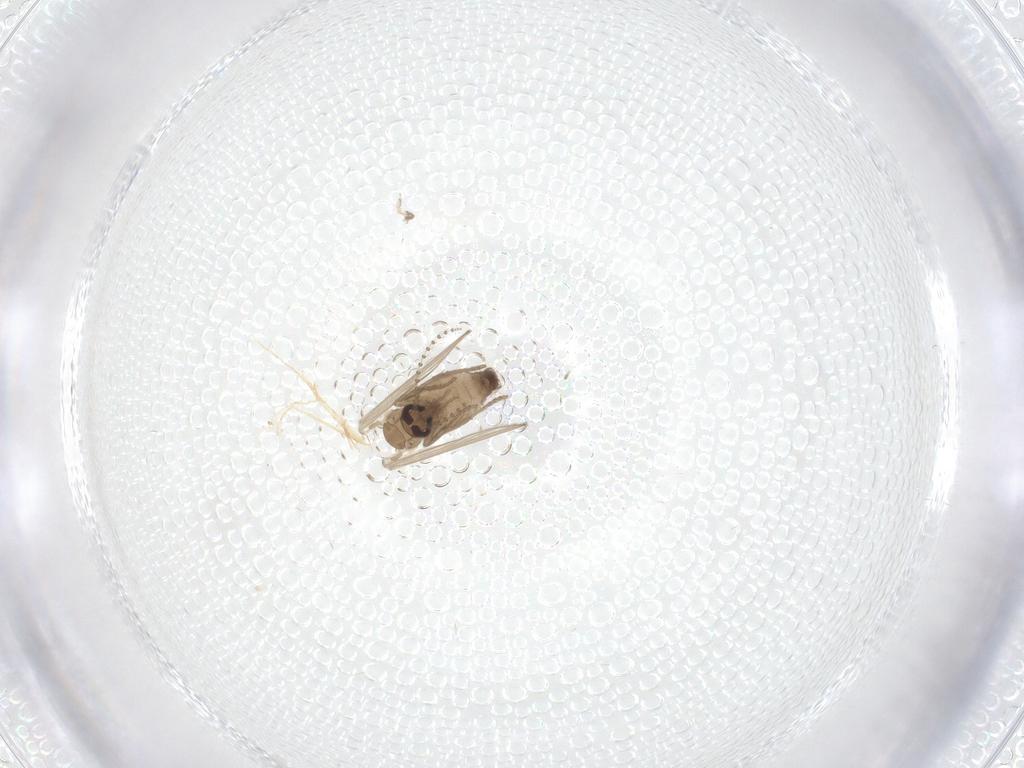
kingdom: Animalia
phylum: Arthropoda
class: Insecta
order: Diptera
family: Psychodidae
